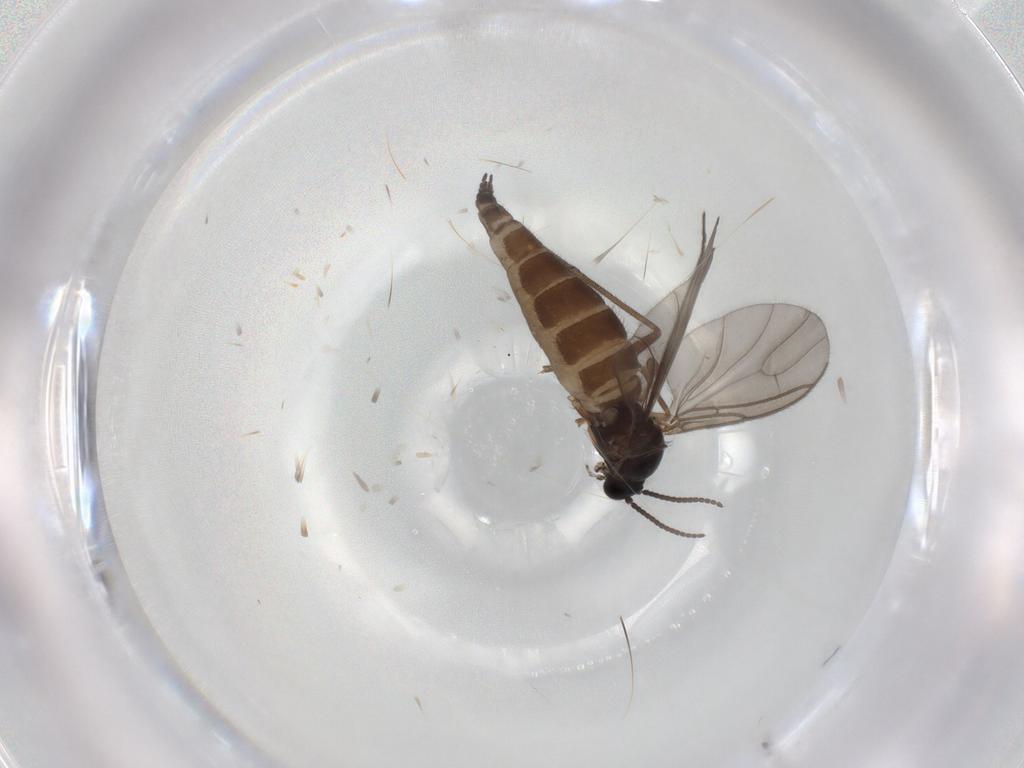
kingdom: Animalia
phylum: Arthropoda
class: Insecta
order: Diptera
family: Sciaridae
